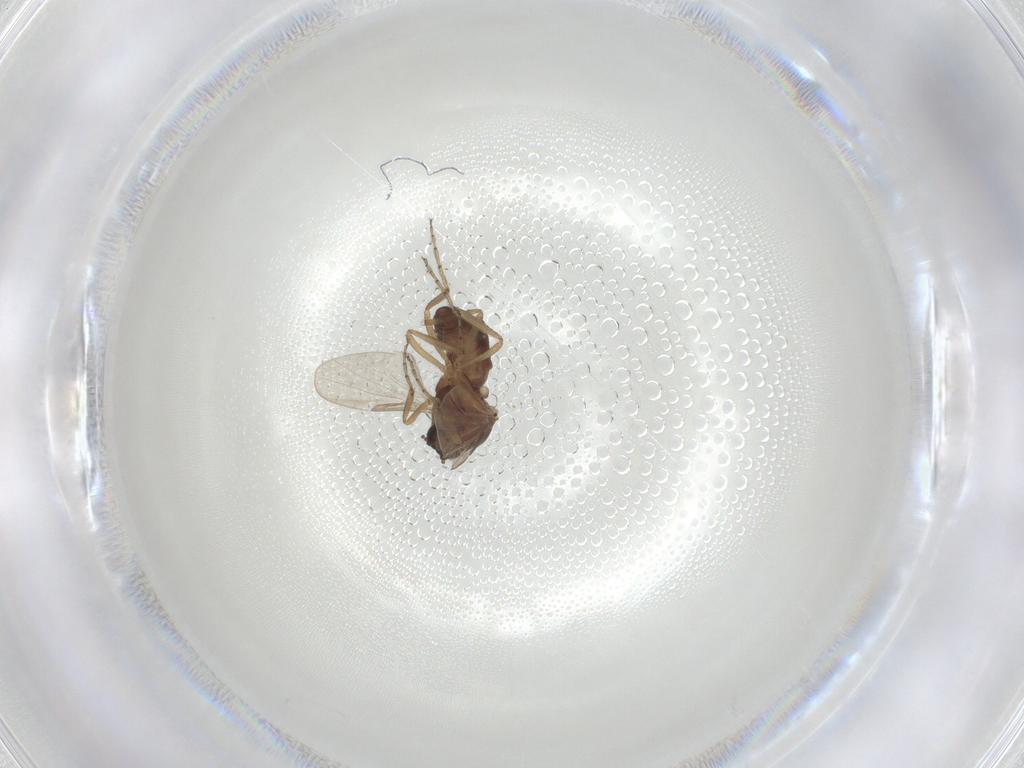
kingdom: Animalia
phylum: Arthropoda
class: Insecta
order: Diptera
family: Ceratopogonidae
